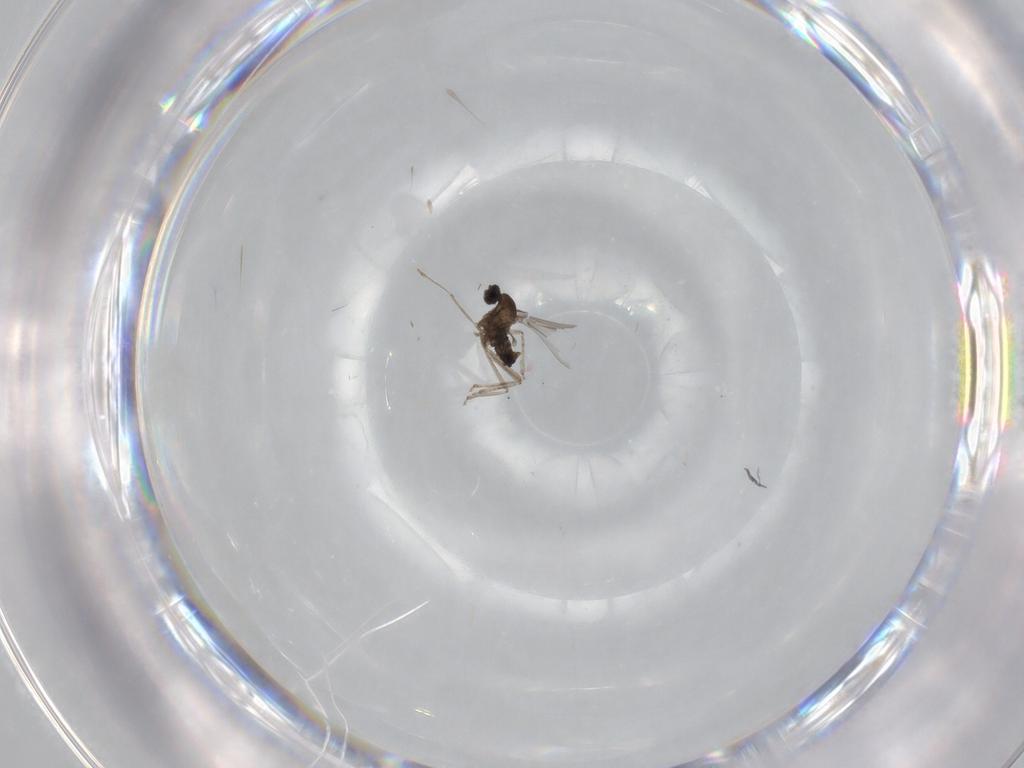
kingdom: Animalia
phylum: Arthropoda
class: Insecta
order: Diptera
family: Cecidomyiidae
